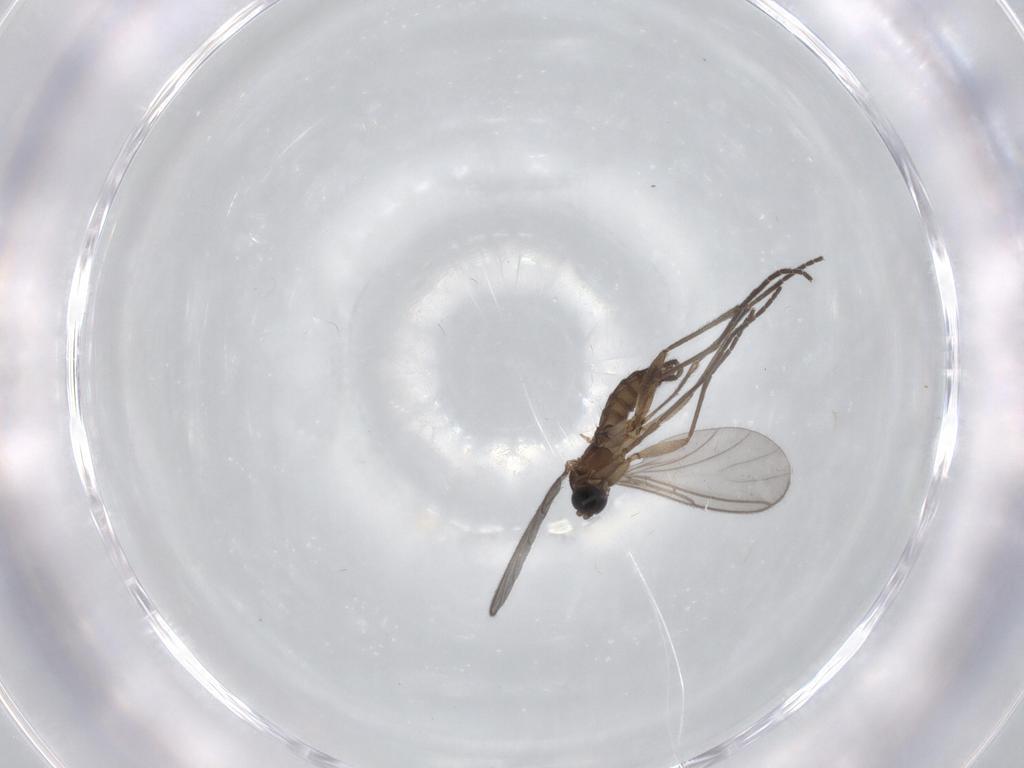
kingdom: Animalia
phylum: Arthropoda
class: Insecta
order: Diptera
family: Sciaridae
